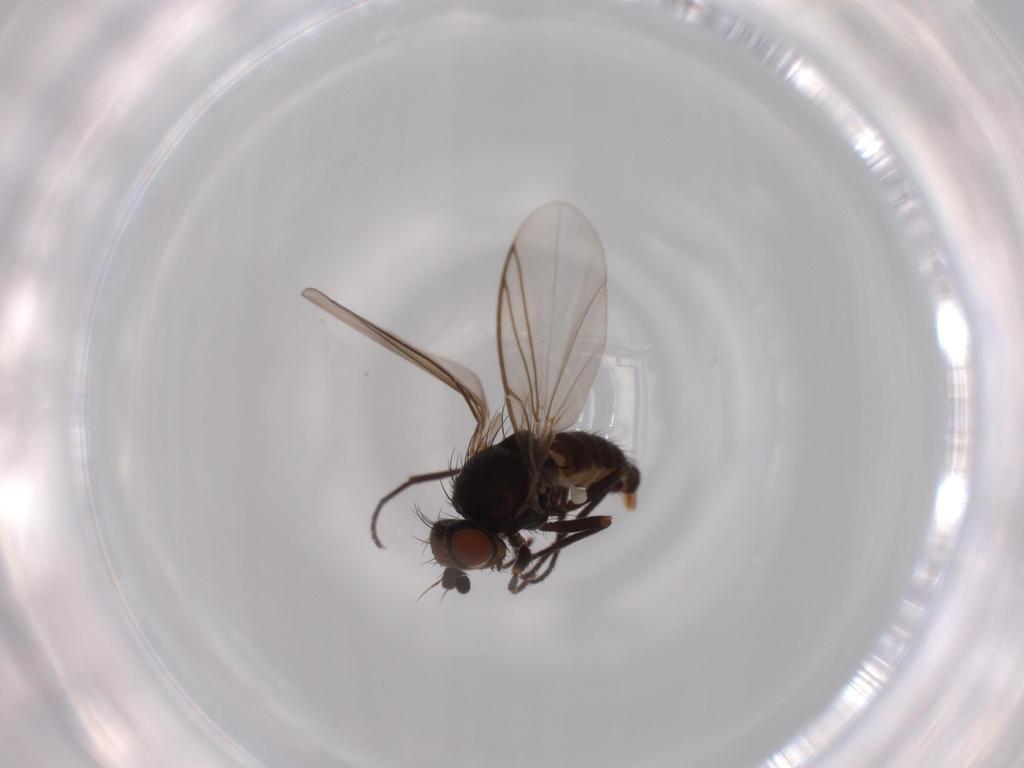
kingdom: Animalia
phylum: Arthropoda
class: Insecta
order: Diptera
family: Agromyzidae
